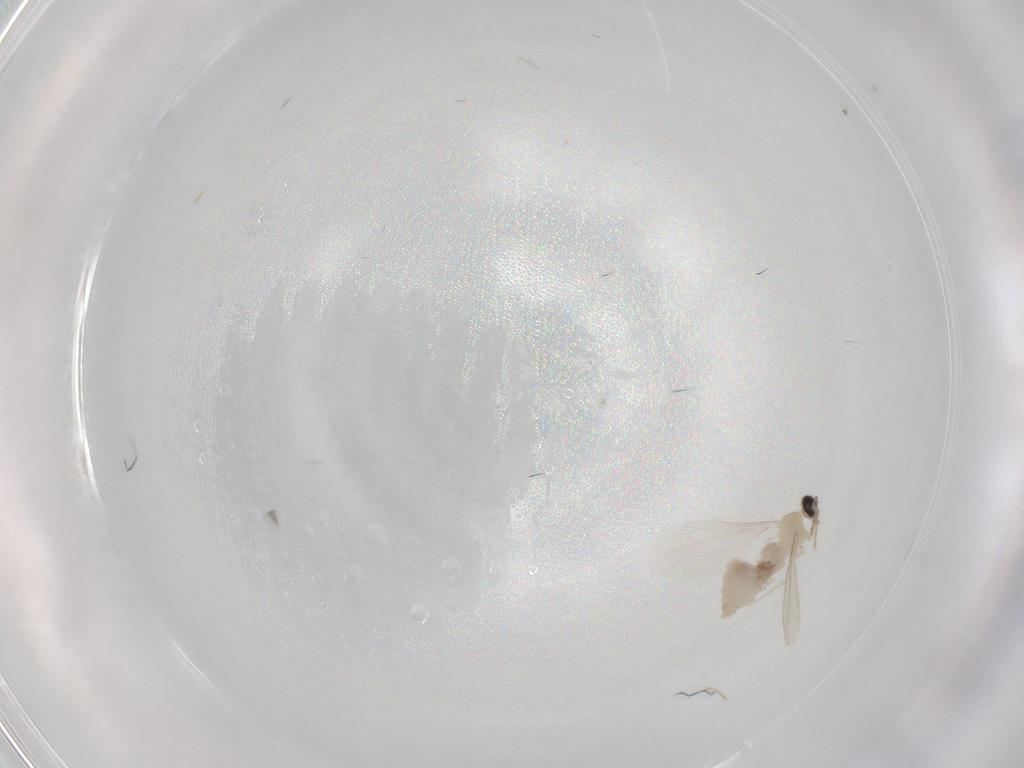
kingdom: Animalia
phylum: Arthropoda
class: Insecta
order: Diptera
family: Cecidomyiidae
